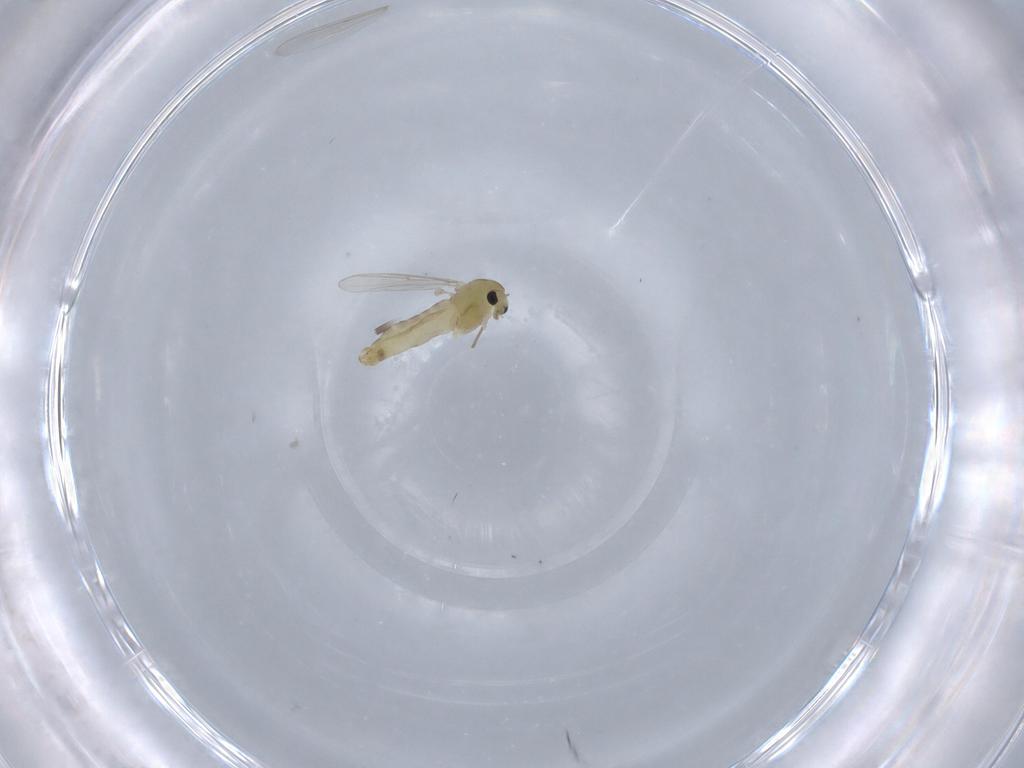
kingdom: Animalia
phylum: Arthropoda
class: Insecta
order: Diptera
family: Chironomidae
